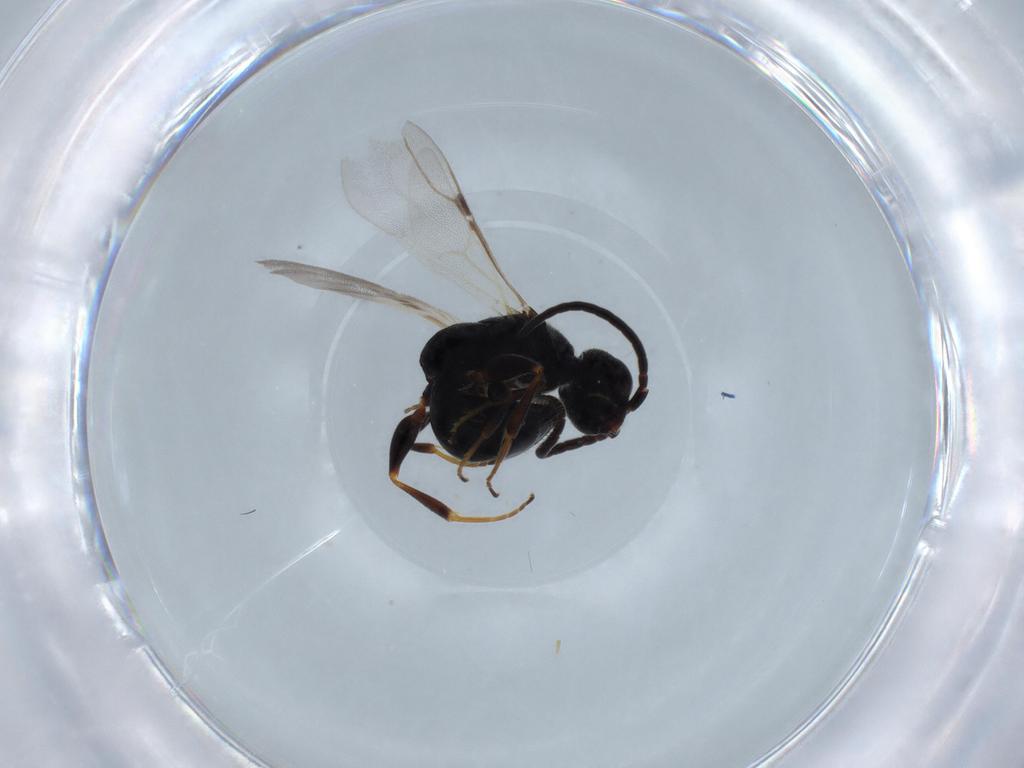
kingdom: Animalia
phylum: Arthropoda
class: Insecta
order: Hymenoptera
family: Bethylidae
